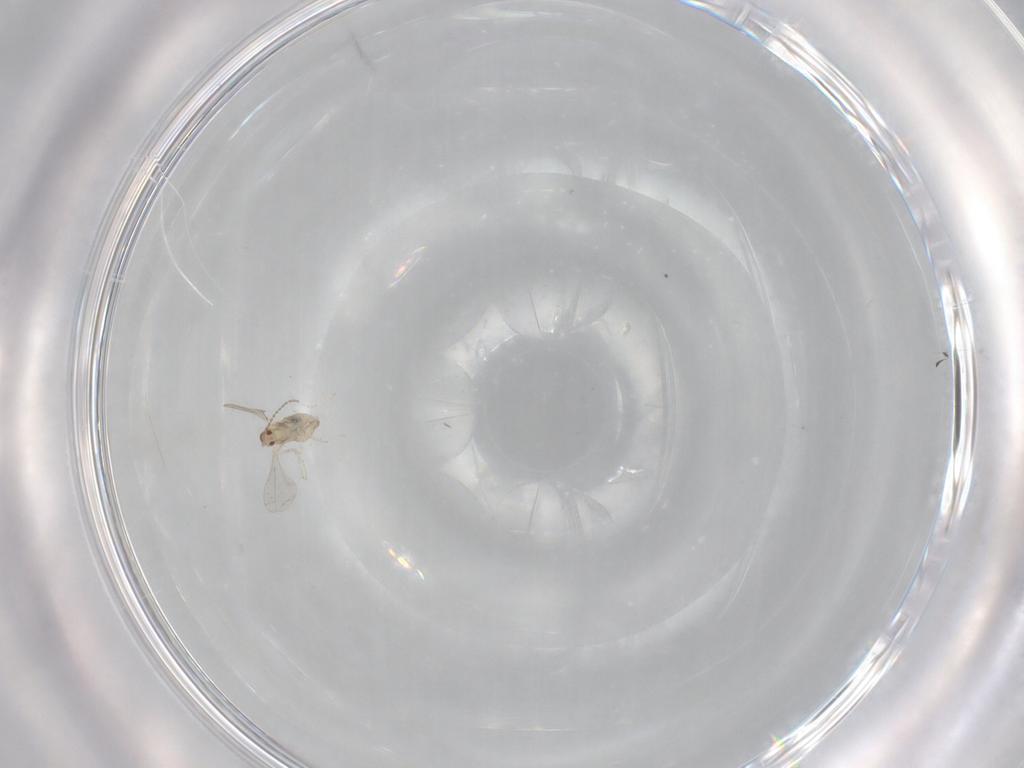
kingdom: Animalia
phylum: Arthropoda
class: Insecta
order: Diptera
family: Cecidomyiidae
